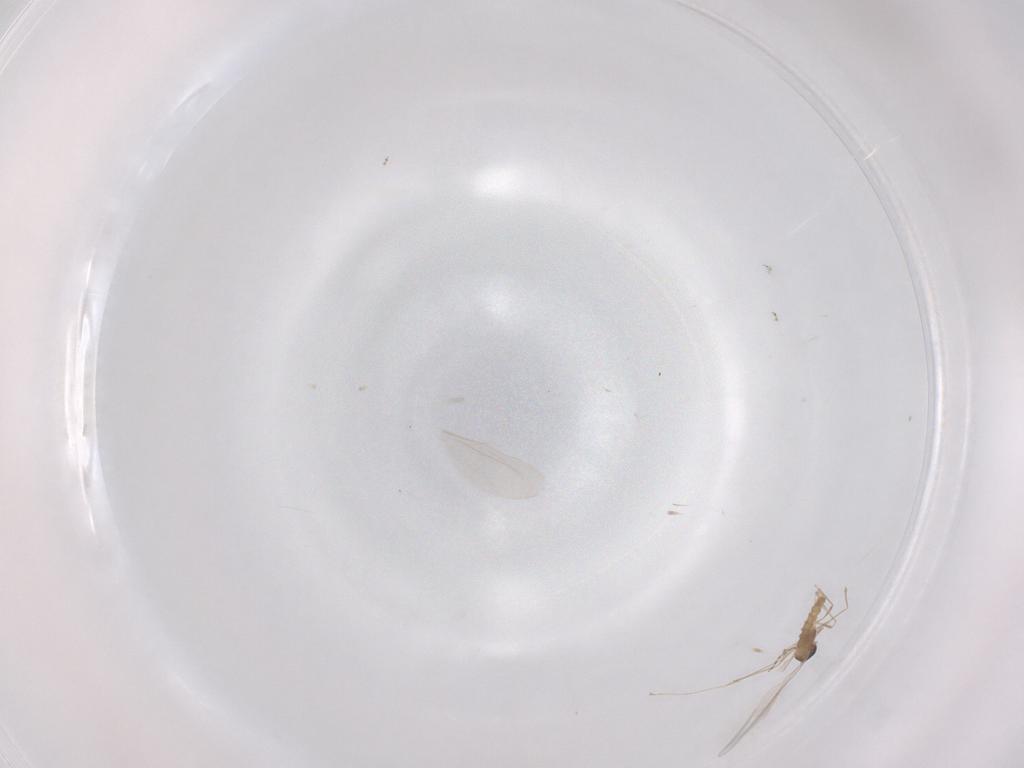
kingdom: Animalia
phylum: Arthropoda
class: Insecta
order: Diptera
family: Cecidomyiidae
